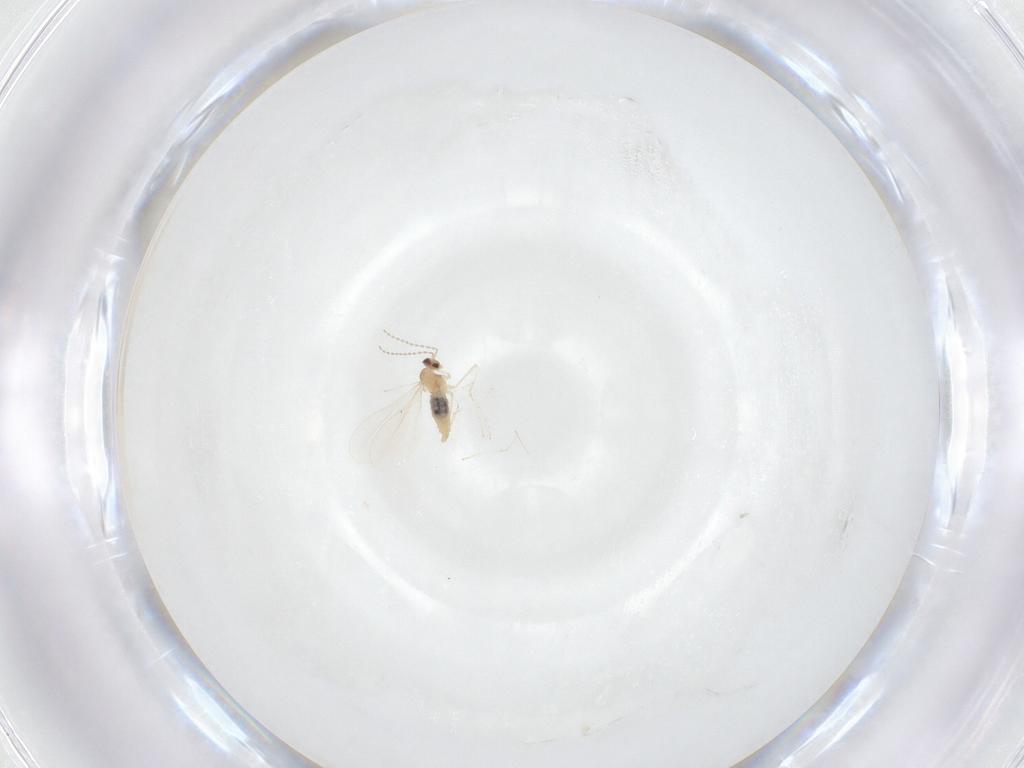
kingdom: Animalia
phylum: Arthropoda
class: Insecta
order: Diptera
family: Cecidomyiidae
